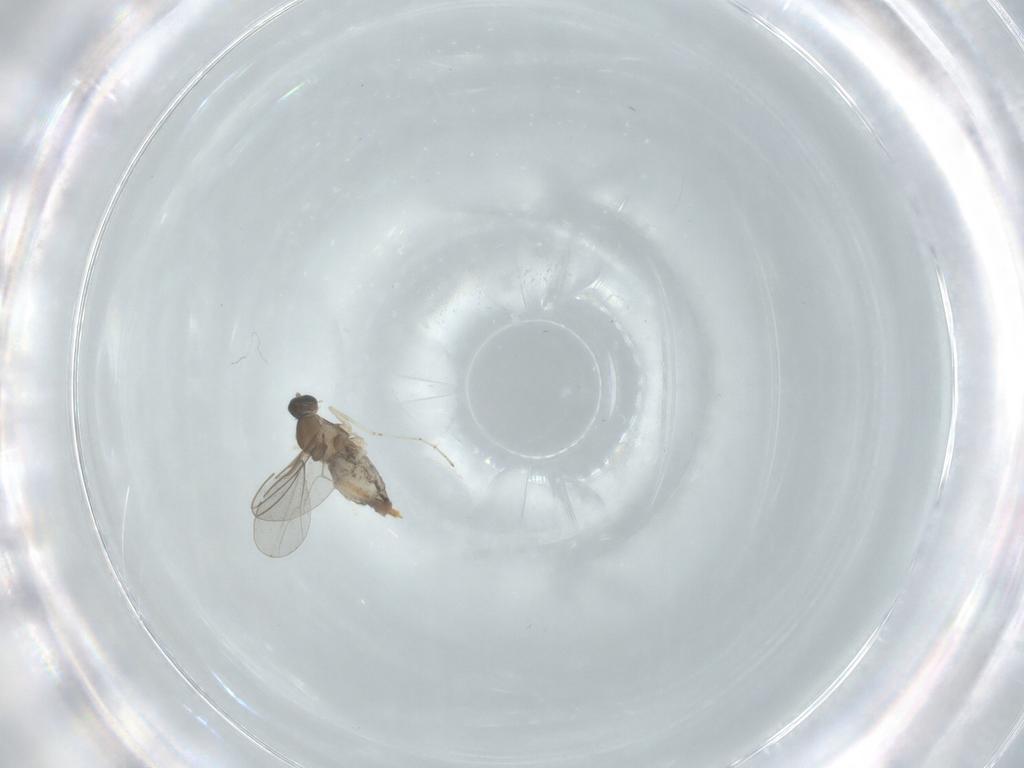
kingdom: Animalia
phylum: Arthropoda
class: Insecta
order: Diptera
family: Cecidomyiidae
